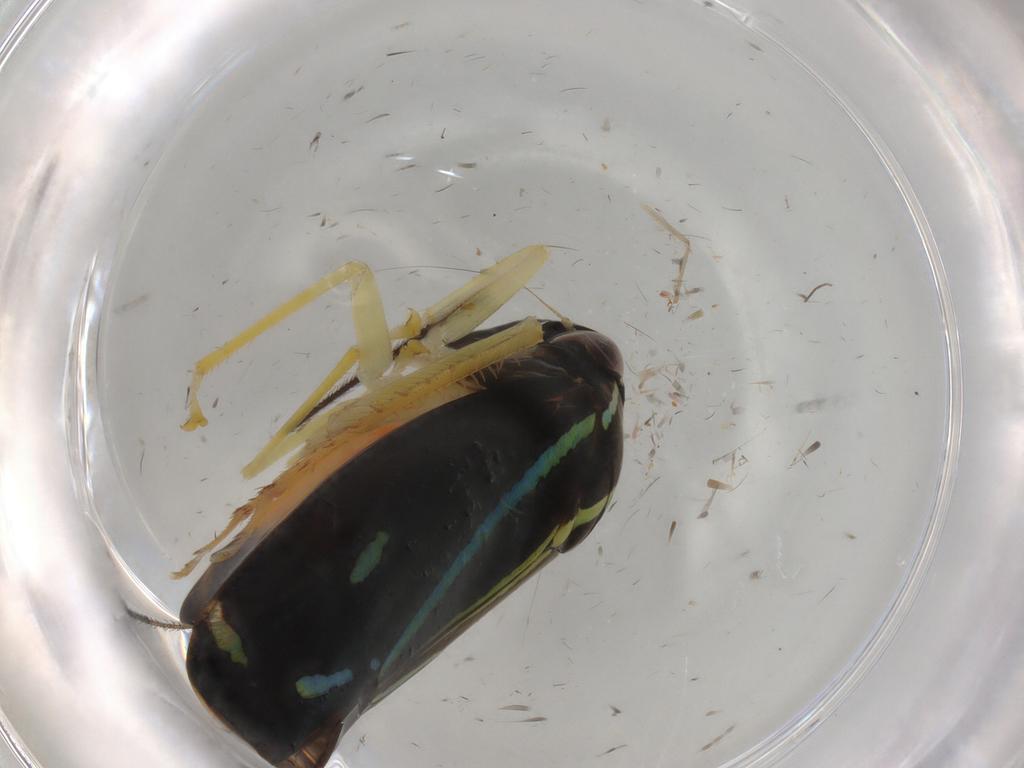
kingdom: Animalia
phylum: Arthropoda
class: Insecta
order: Hemiptera
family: Cicadellidae
